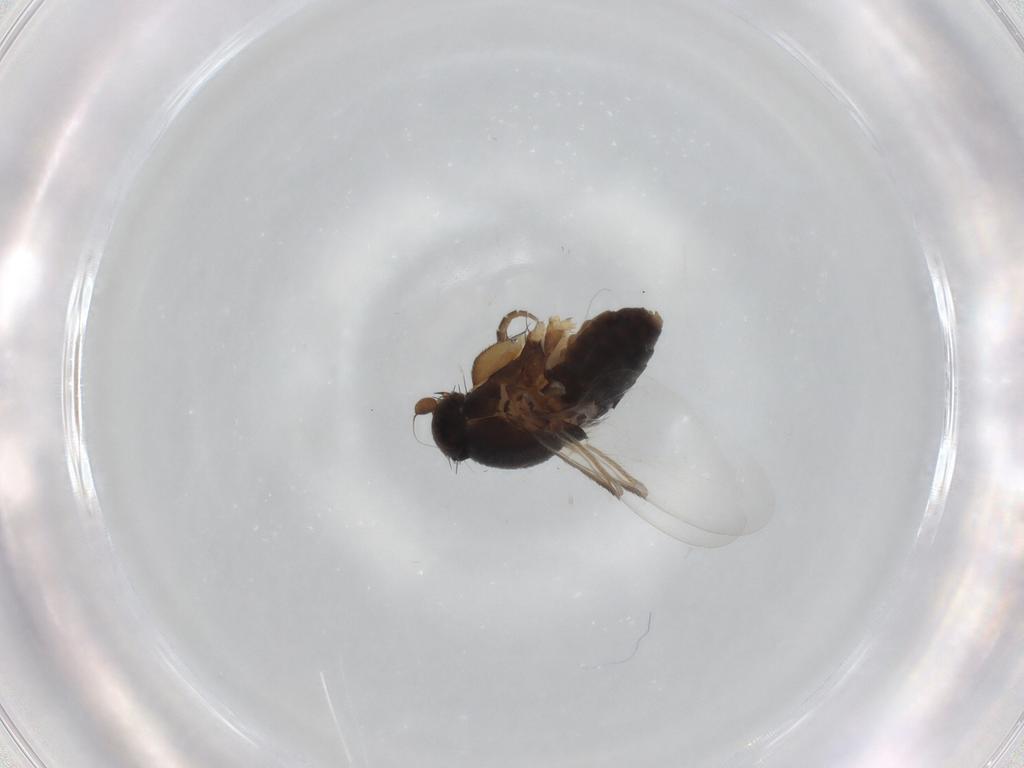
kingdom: Animalia
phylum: Arthropoda
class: Insecta
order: Diptera
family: Phoridae
